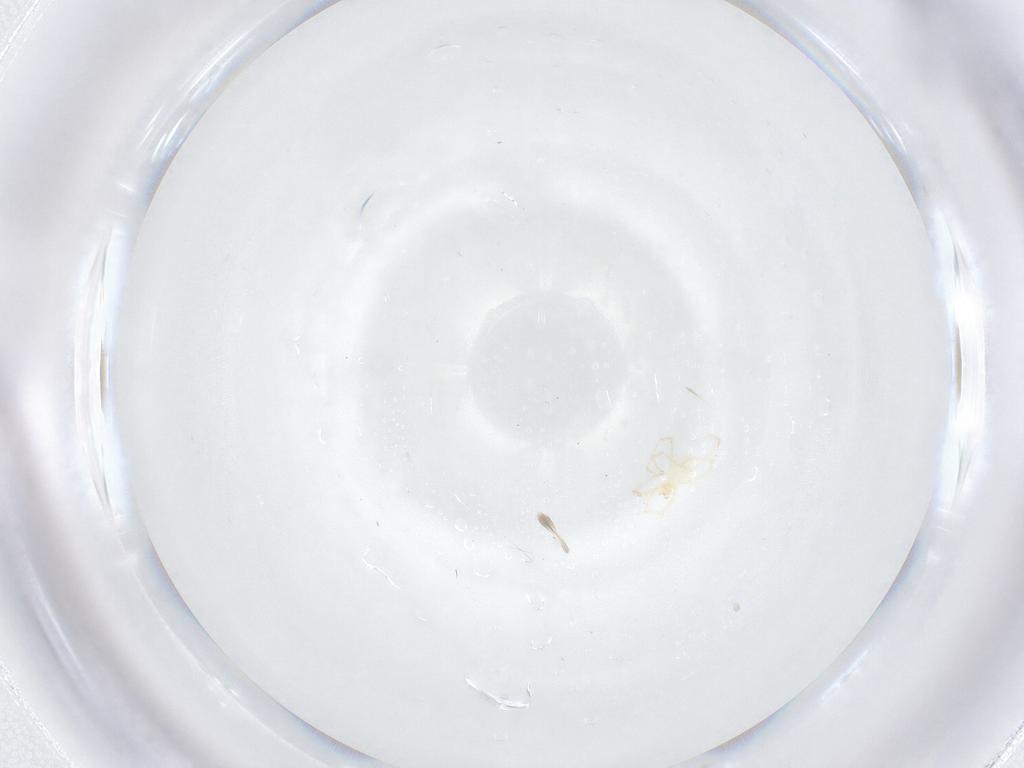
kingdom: Animalia
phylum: Arthropoda
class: Arachnida
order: Trombidiformes
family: Erythraeidae
